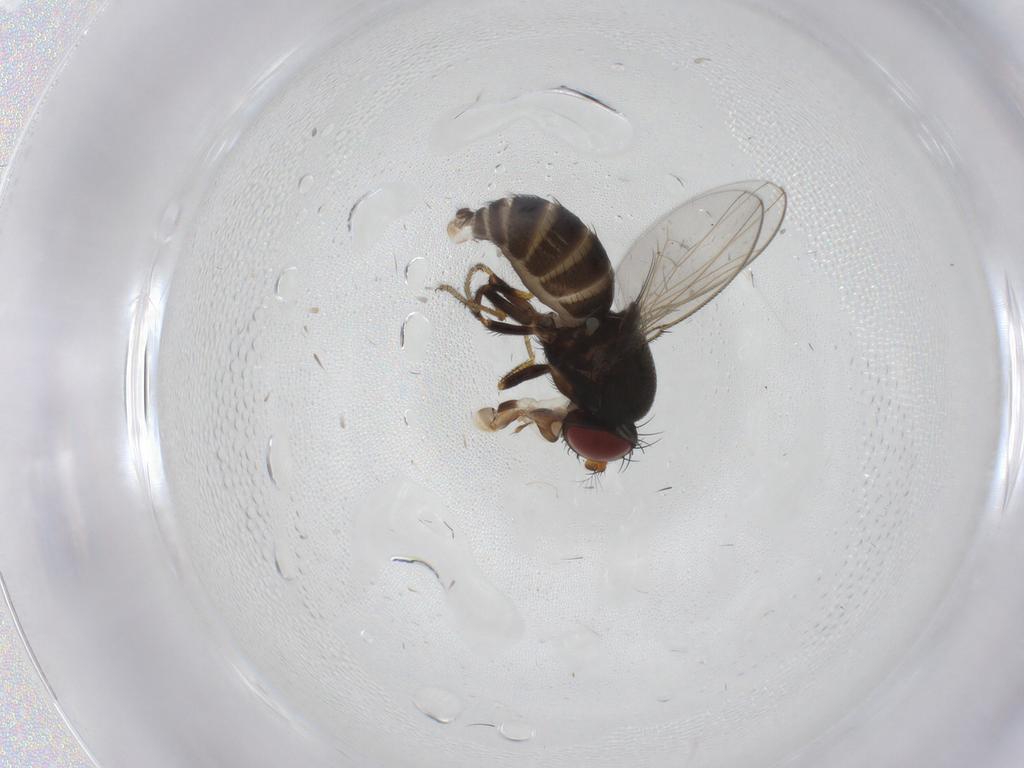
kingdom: Animalia
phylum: Arthropoda
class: Insecta
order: Diptera
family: Ephydridae
